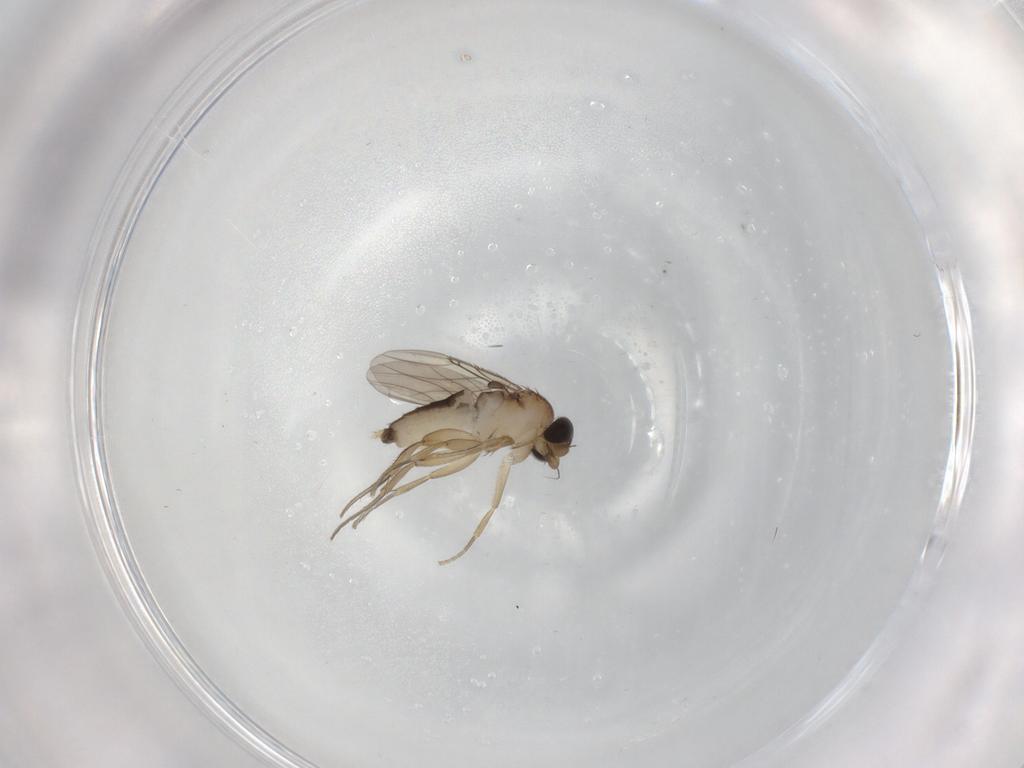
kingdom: Animalia
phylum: Arthropoda
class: Insecta
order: Diptera
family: Phoridae
